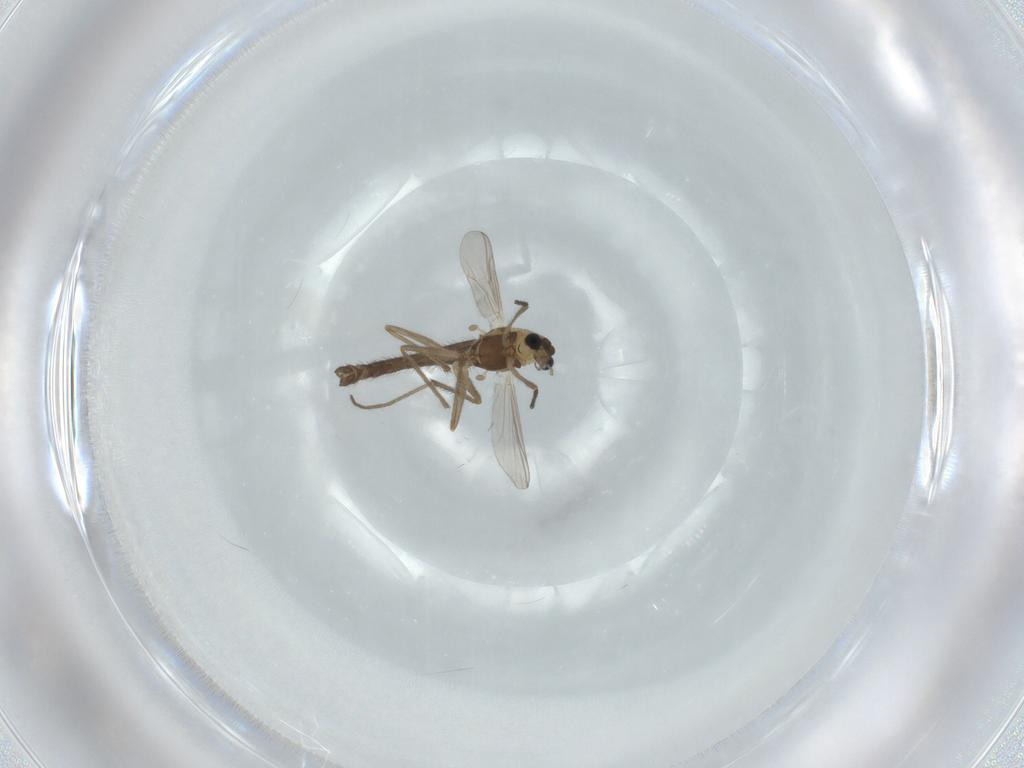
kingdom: Animalia
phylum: Arthropoda
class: Insecta
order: Diptera
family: Chironomidae
